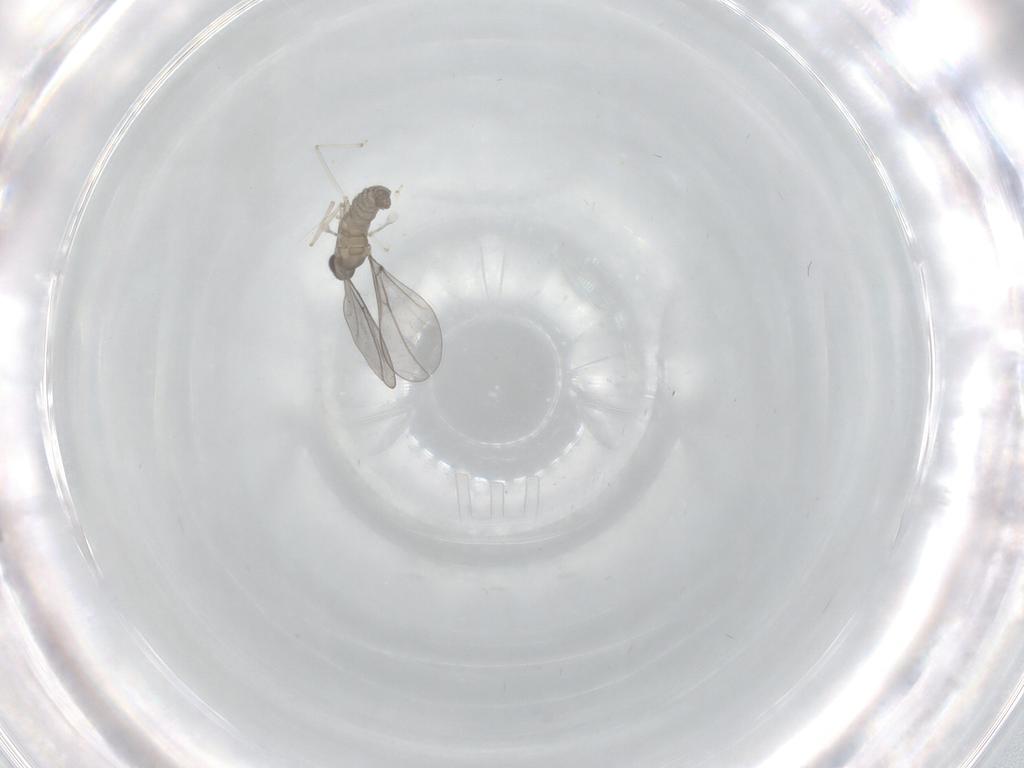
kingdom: Animalia
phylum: Arthropoda
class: Insecta
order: Diptera
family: Cecidomyiidae
